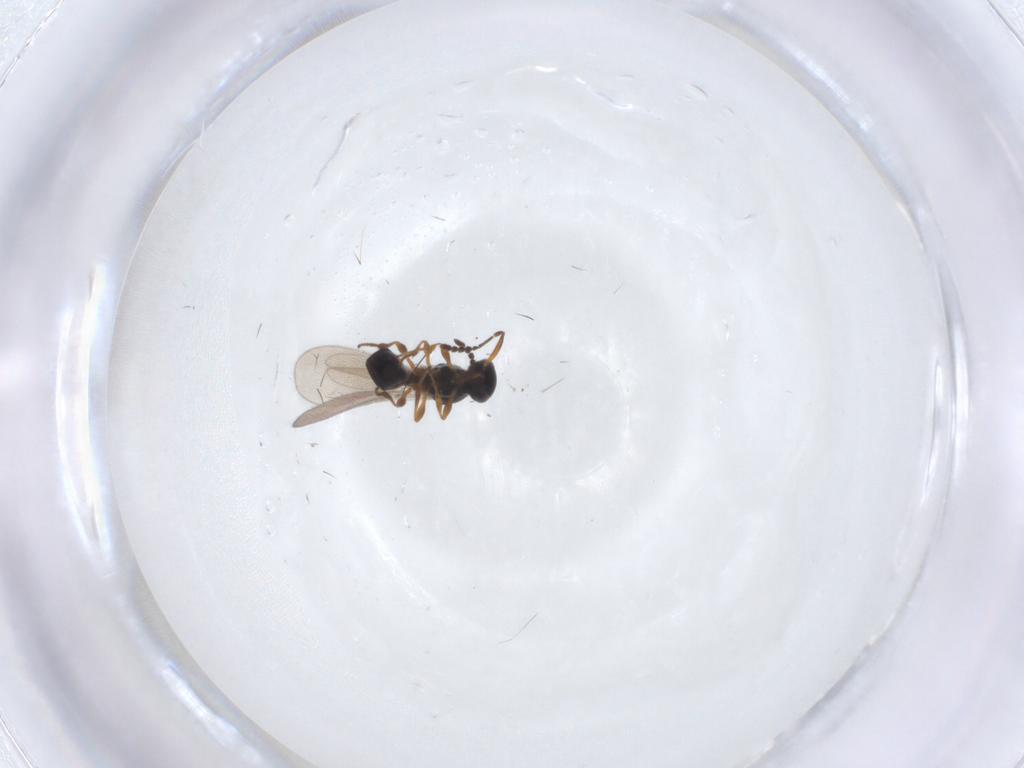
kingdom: Animalia
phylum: Arthropoda
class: Insecta
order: Hymenoptera
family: Platygastridae
